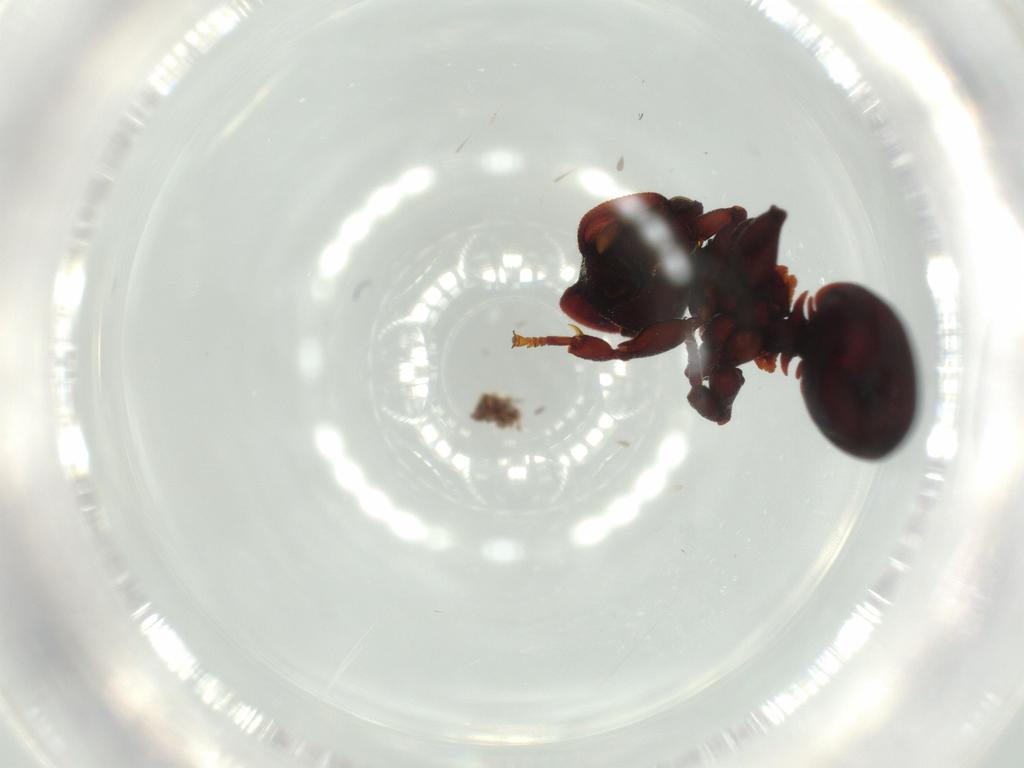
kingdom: Animalia
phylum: Arthropoda
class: Insecta
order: Hymenoptera
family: Formicidae
